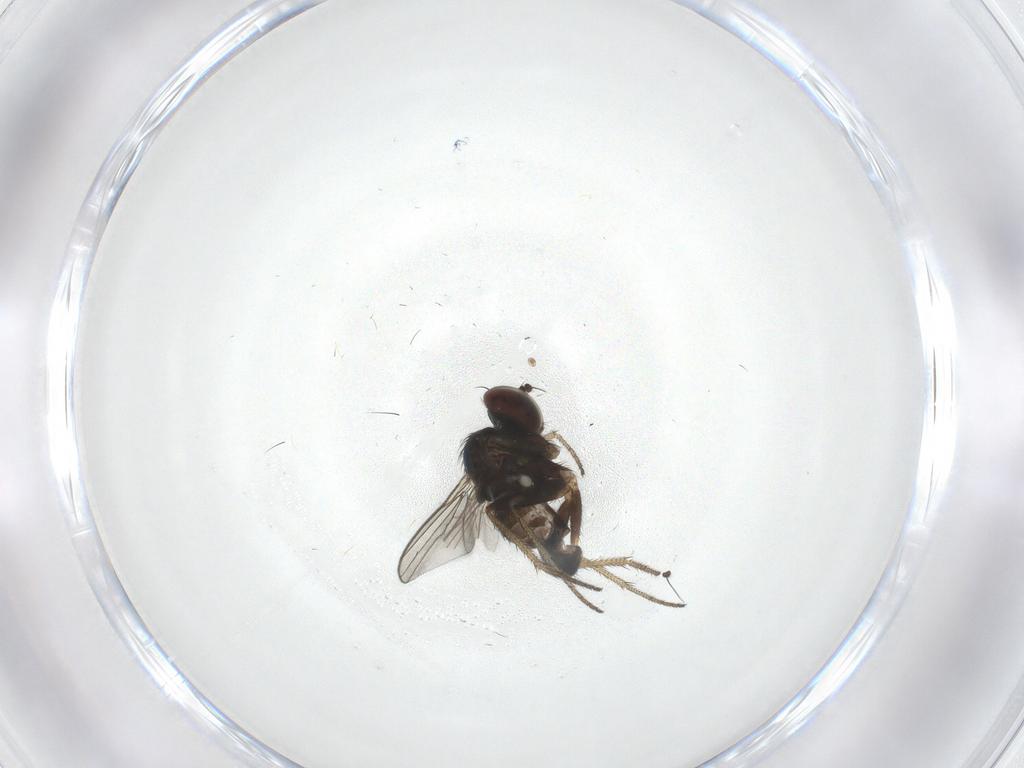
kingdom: Animalia
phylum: Arthropoda
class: Insecta
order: Diptera
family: Dolichopodidae
